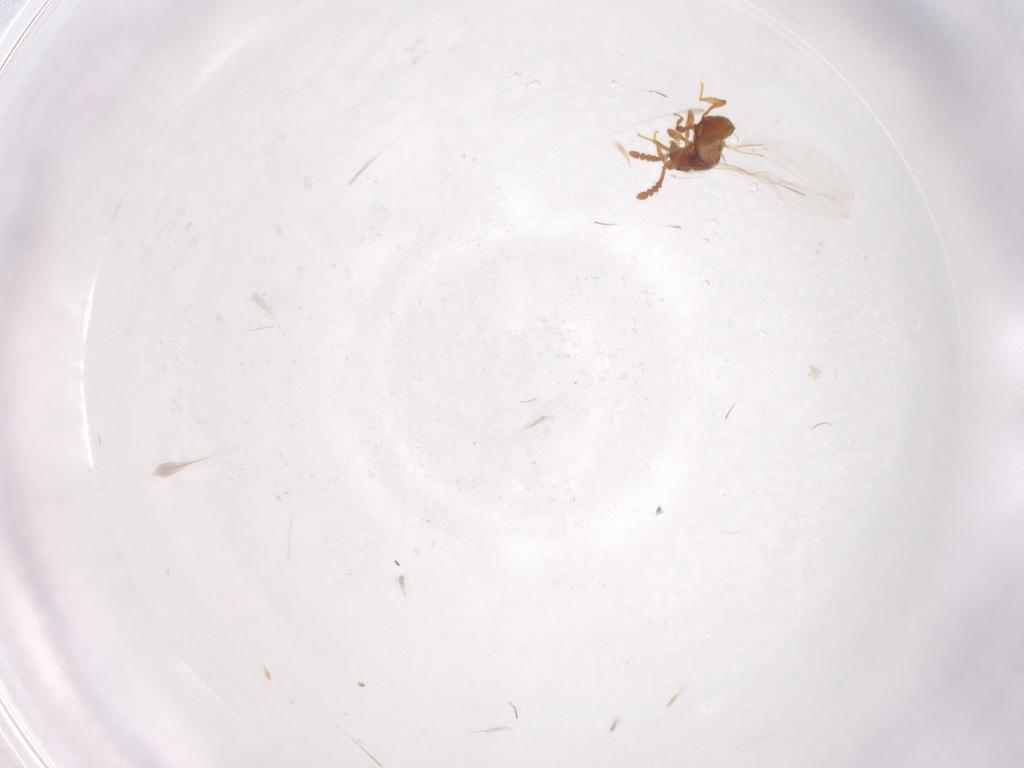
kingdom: Animalia
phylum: Arthropoda
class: Insecta
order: Coleoptera
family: Staphylinidae
